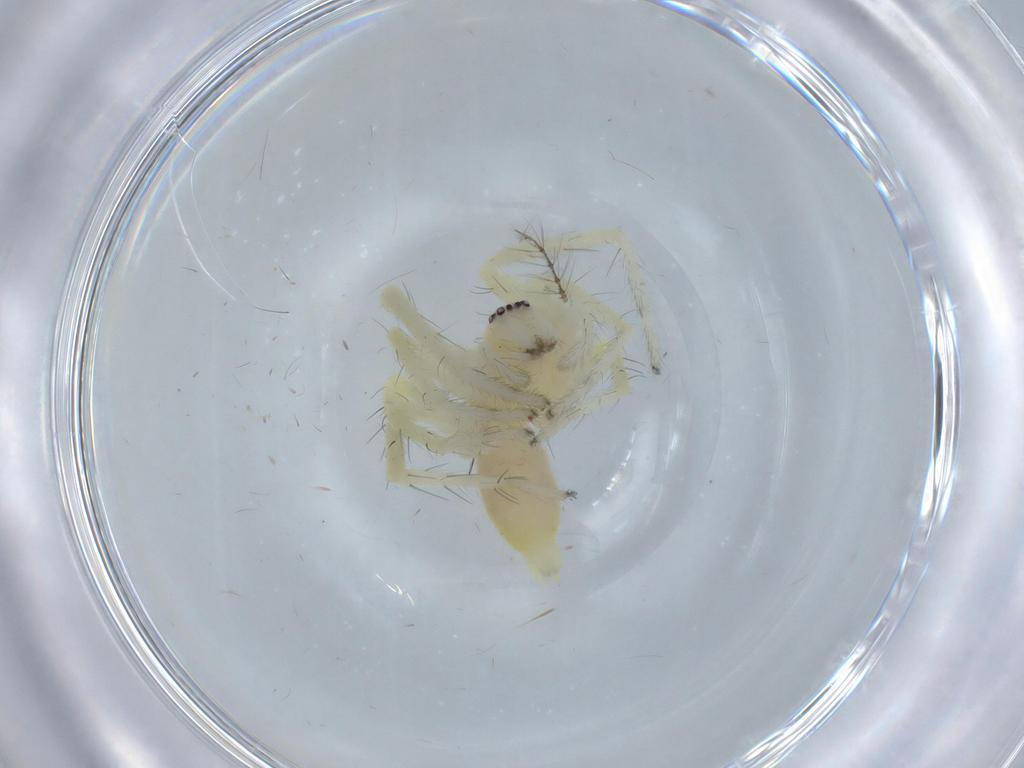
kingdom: Animalia
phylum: Arthropoda
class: Arachnida
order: Araneae
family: Anyphaenidae
